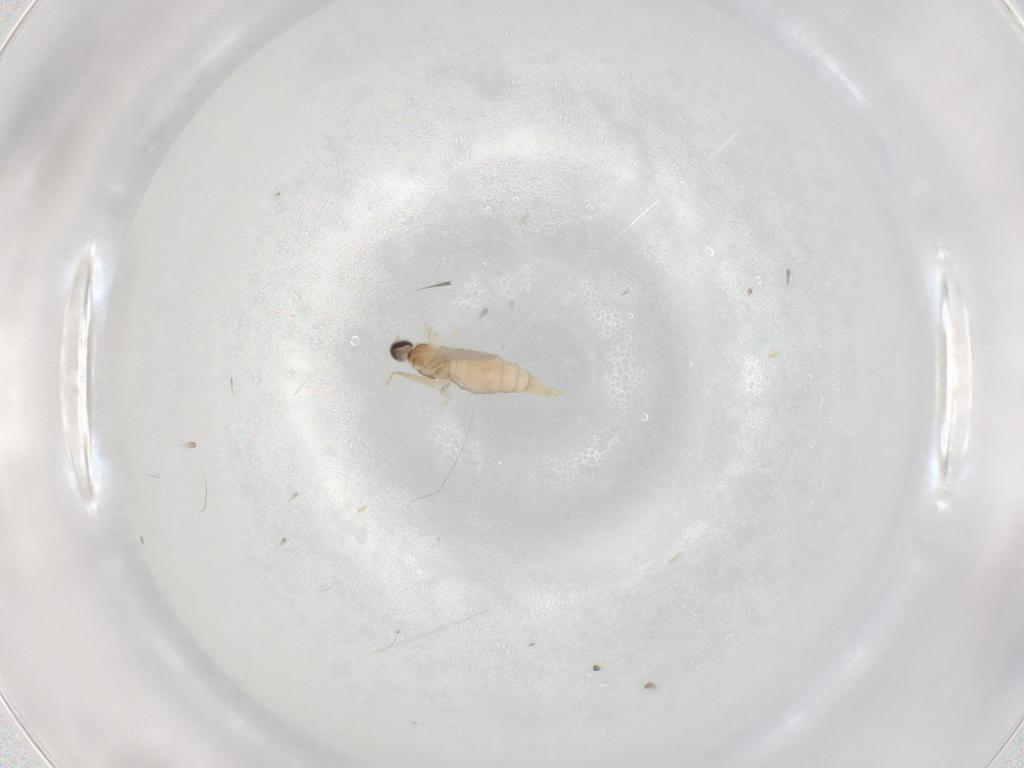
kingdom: Animalia
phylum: Arthropoda
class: Insecta
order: Diptera
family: Cecidomyiidae
